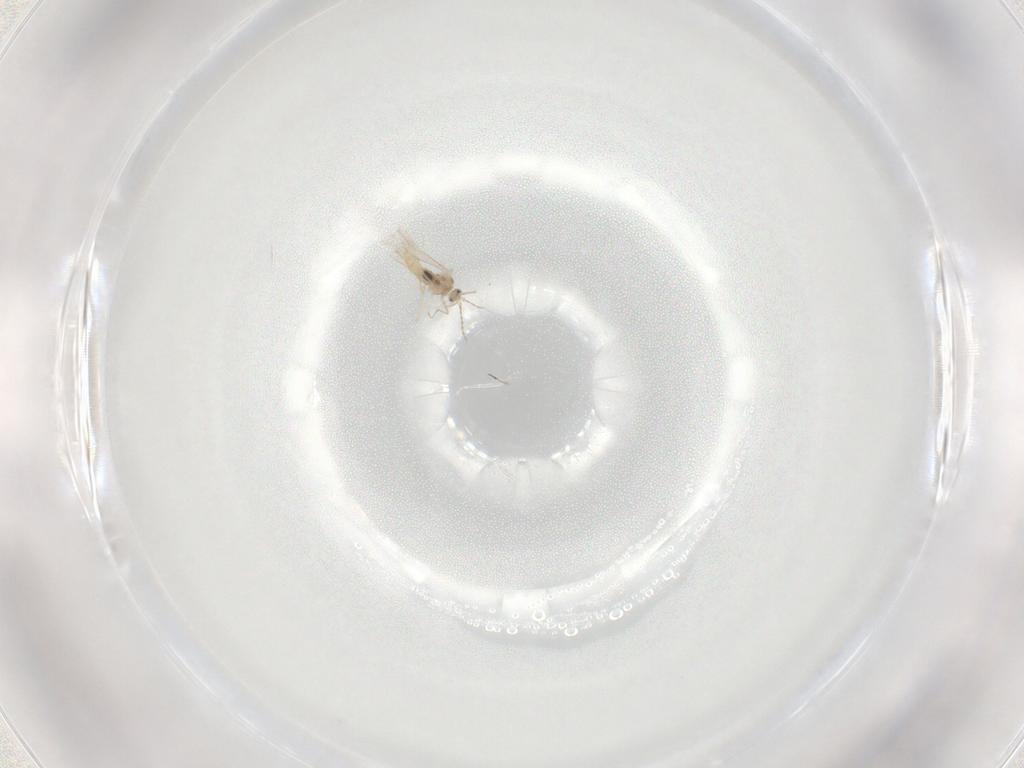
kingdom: Animalia
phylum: Arthropoda
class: Insecta
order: Diptera
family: Cecidomyiidae
